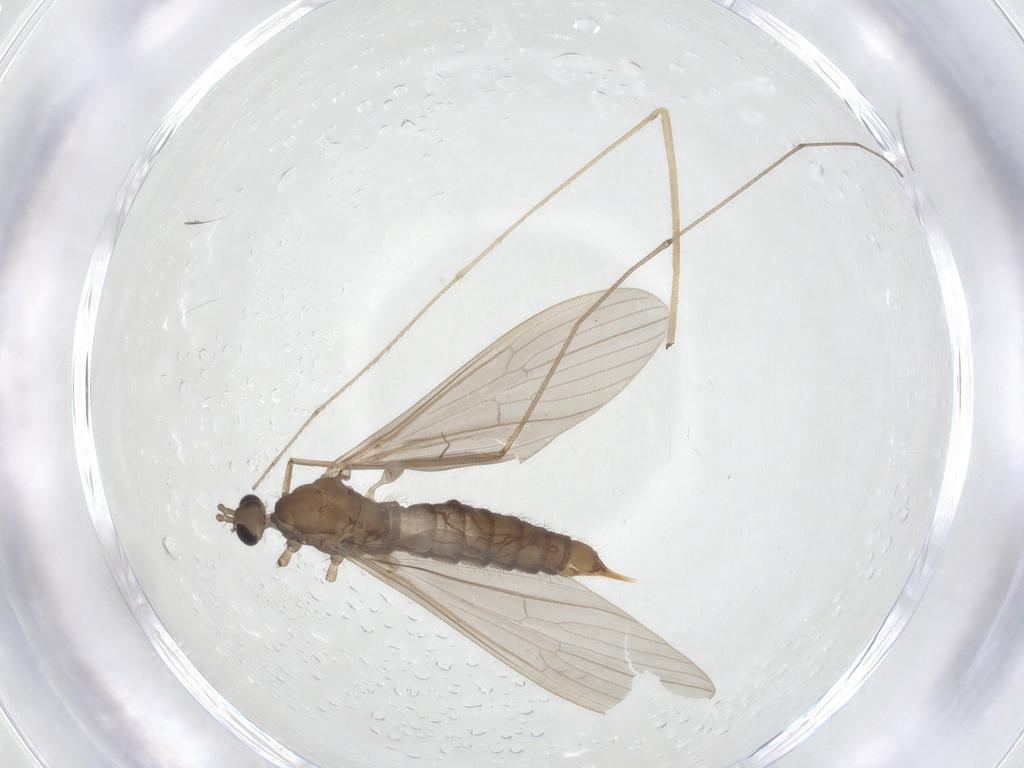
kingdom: Animalia
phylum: Arthropoda
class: Insecta
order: Diptera
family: Limoniidae
